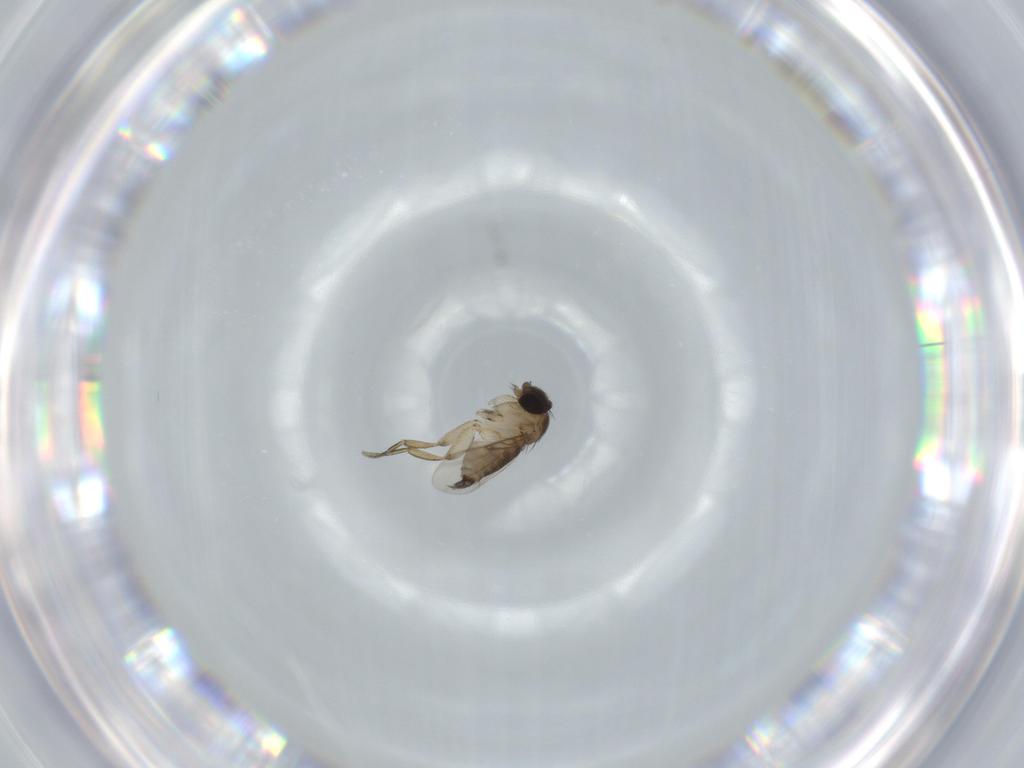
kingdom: Animalia
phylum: Arthropoda
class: Insecta
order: Diptera
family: Phoridae
